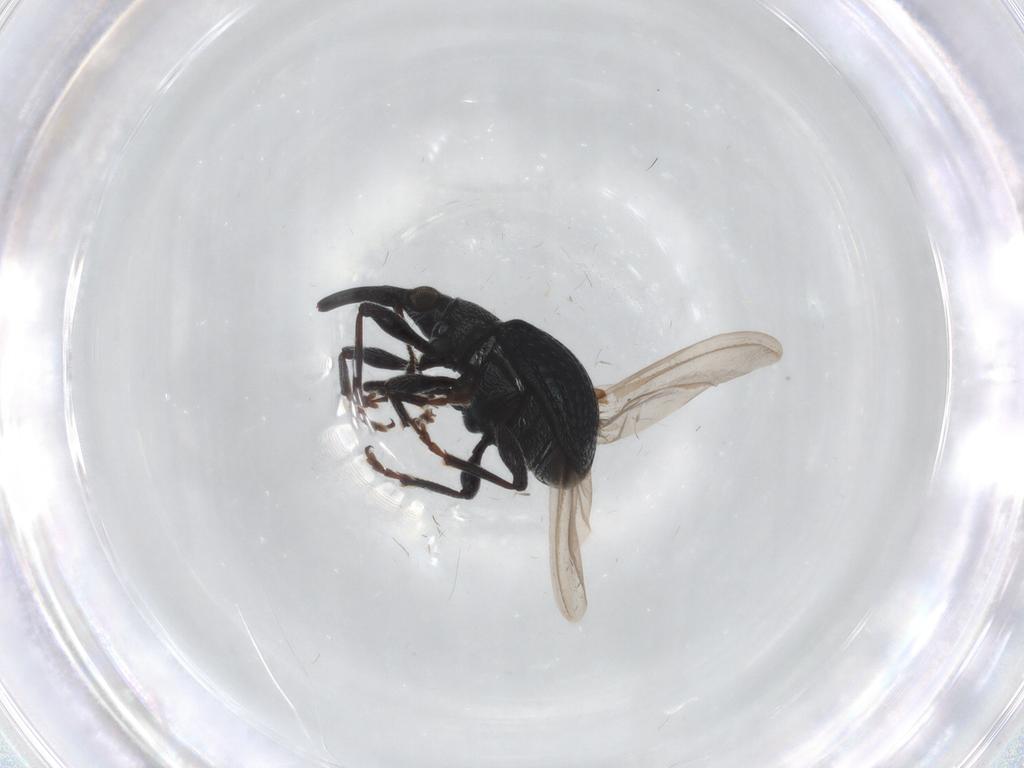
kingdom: Animalia
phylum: Arthropoda
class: Insecta
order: Coleoptera
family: Brentidae
